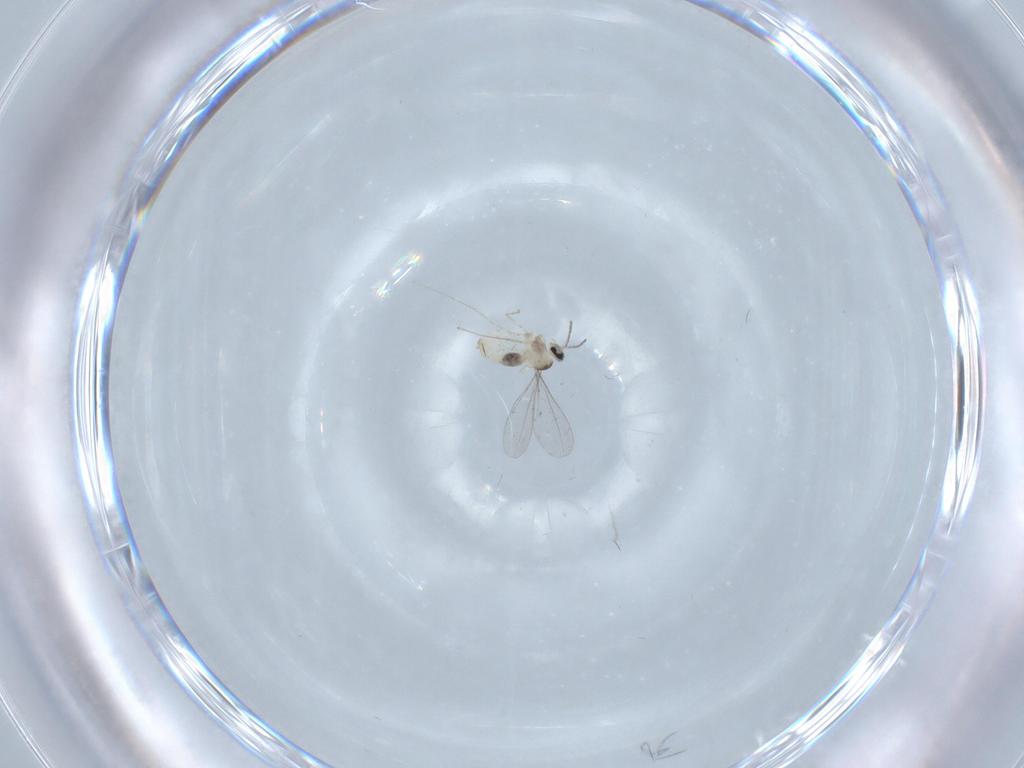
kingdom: Animalia
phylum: Arthropoda
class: Insecta
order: Diptera
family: Cecidomyiidae
